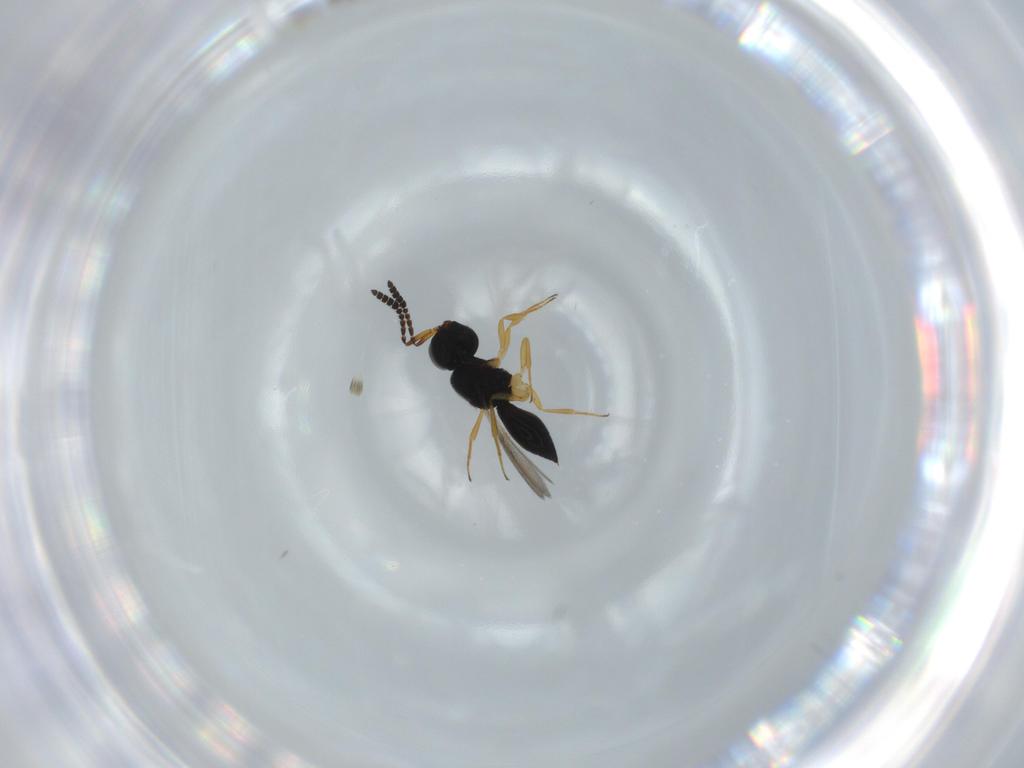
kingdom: Animalia
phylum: Arthropoda
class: Insecta
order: Hymenoptera
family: Scelionidae
